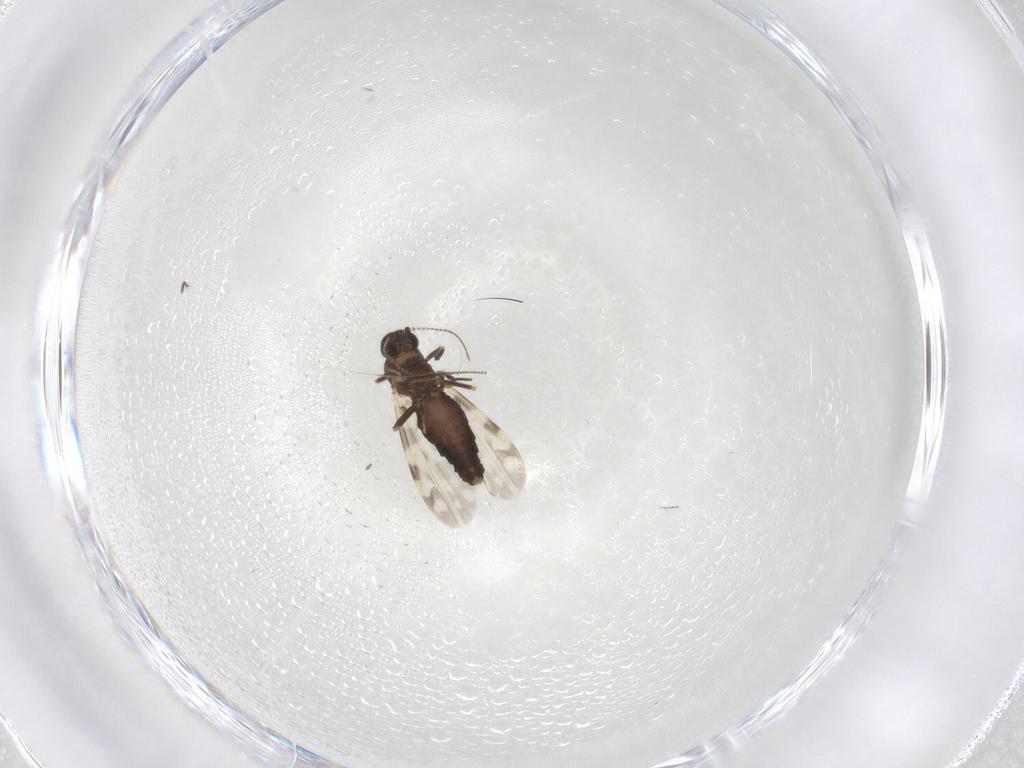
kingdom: Animalia
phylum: Arthropoda
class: Insecta
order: Diptera
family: Ceratopogonidae
